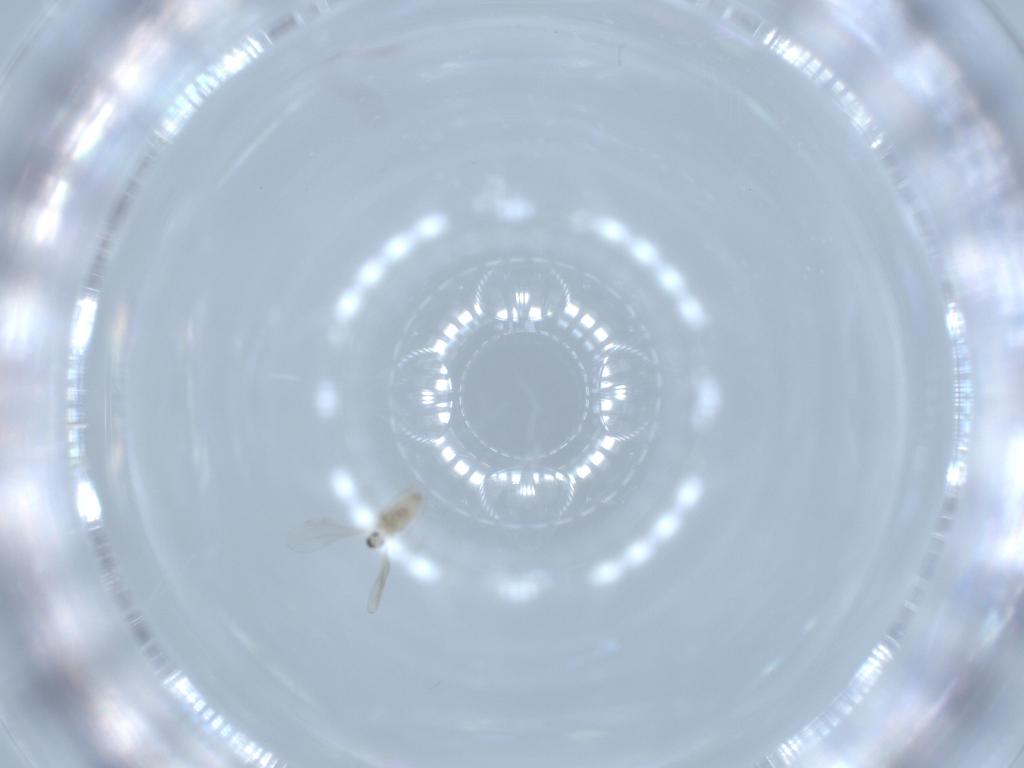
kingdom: Animalia
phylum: Arthropoda
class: Insecta
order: Diptera
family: Cecidomyiidae
